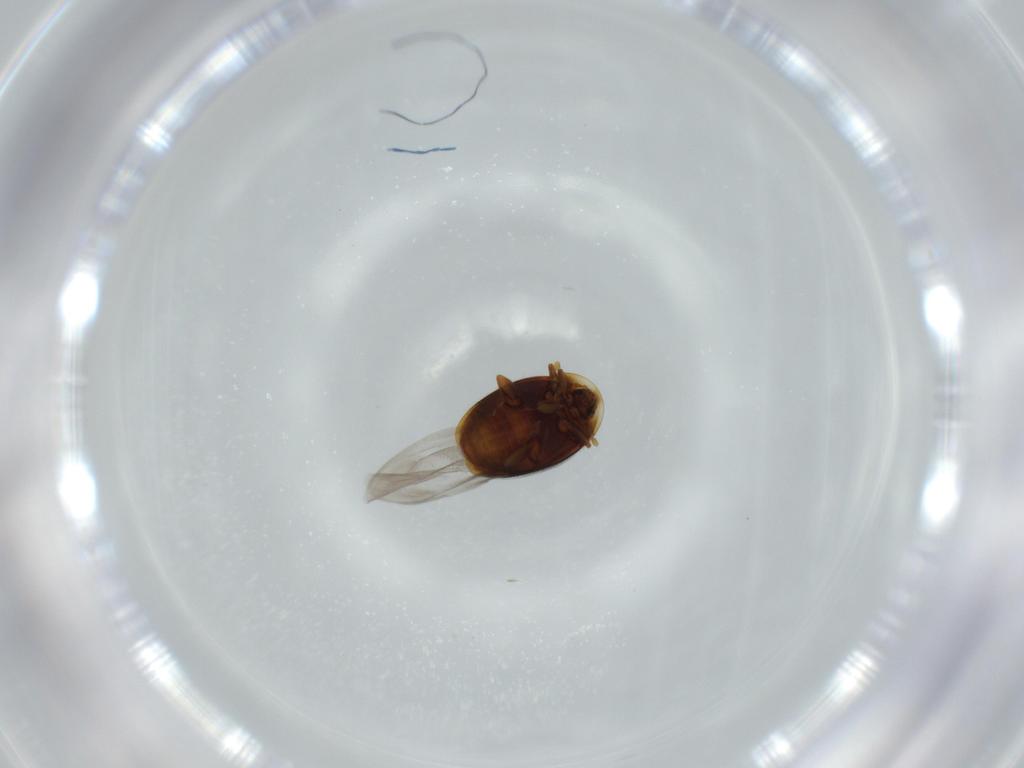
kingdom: Animalia
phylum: Arthropoda
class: Insecta
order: Coleoptera
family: Corylophidae
